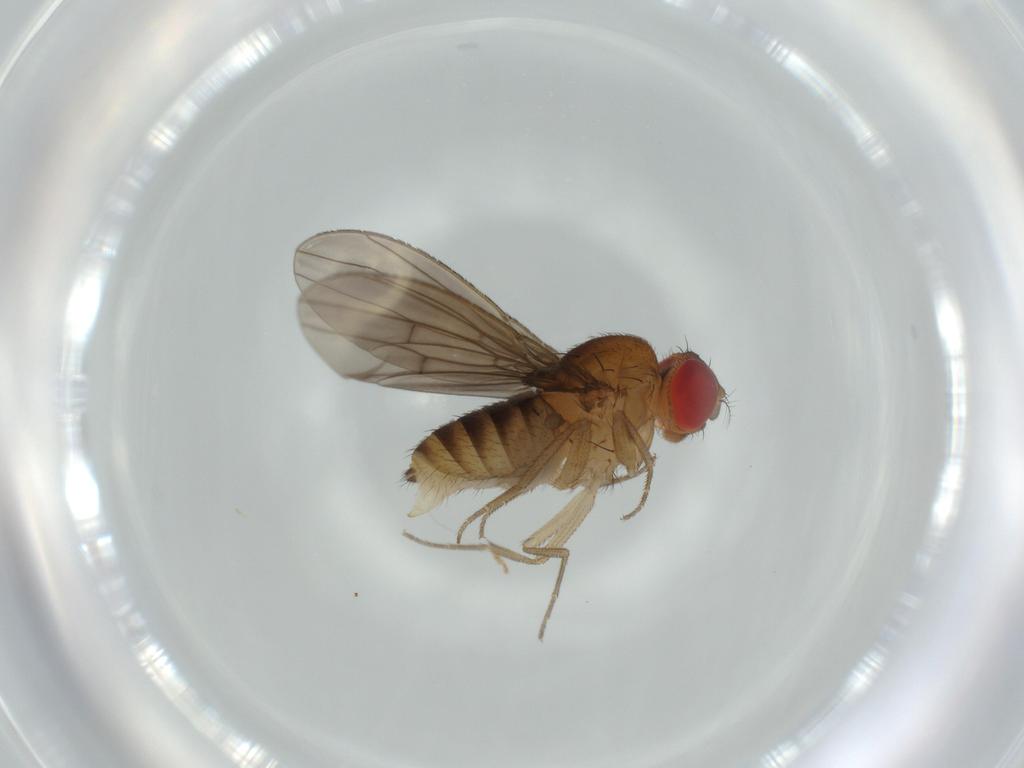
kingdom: Animalia
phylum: Arthropoda
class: Insecta
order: Diptera
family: Drosophilidae
